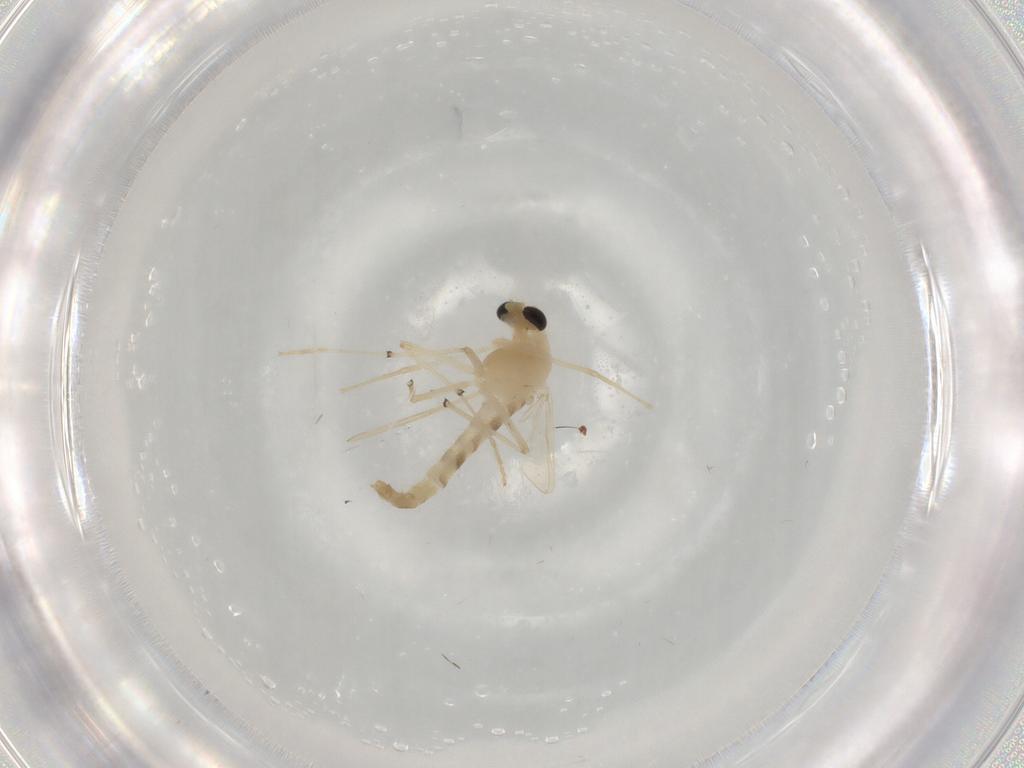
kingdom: Animalia
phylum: Arthropoda
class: Insecta
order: Diptera
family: Chironomidae
